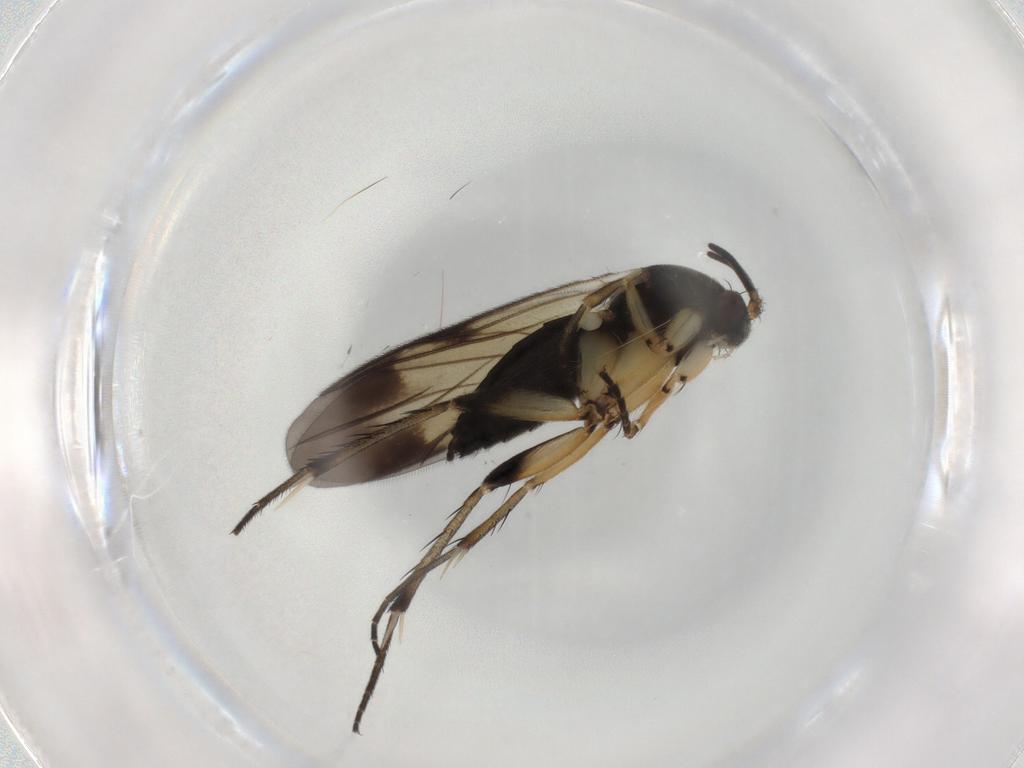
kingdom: Animalia
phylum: Arthropoda
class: Insecta
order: Diptera
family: Mycetophilidae
